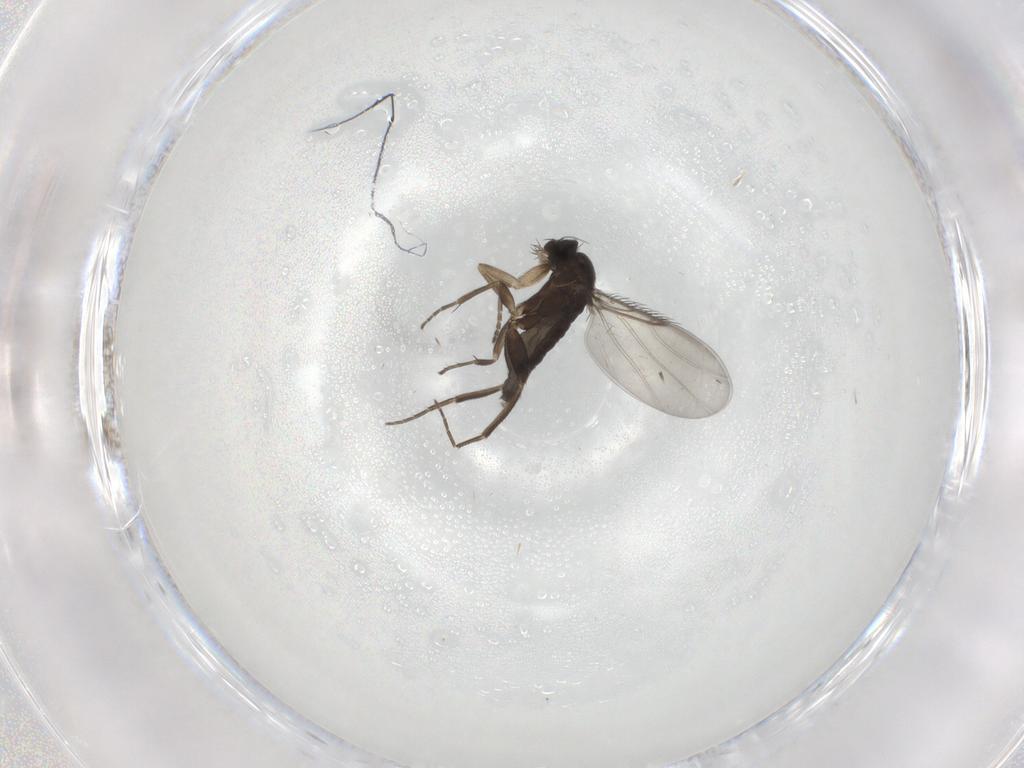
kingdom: Animalia
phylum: Arthropoda
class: Insecta
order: Diptera
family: Phoridae
